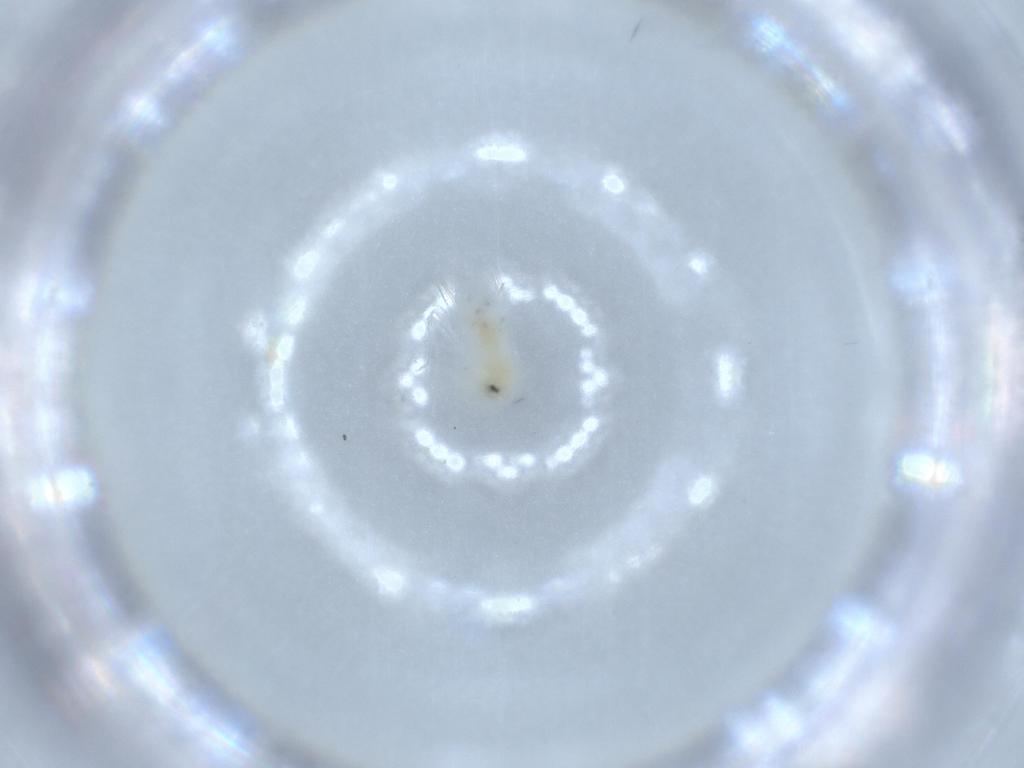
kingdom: Animalia
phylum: Arthropoda
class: Insecta
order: Hemiptera
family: Aleyrodidae
